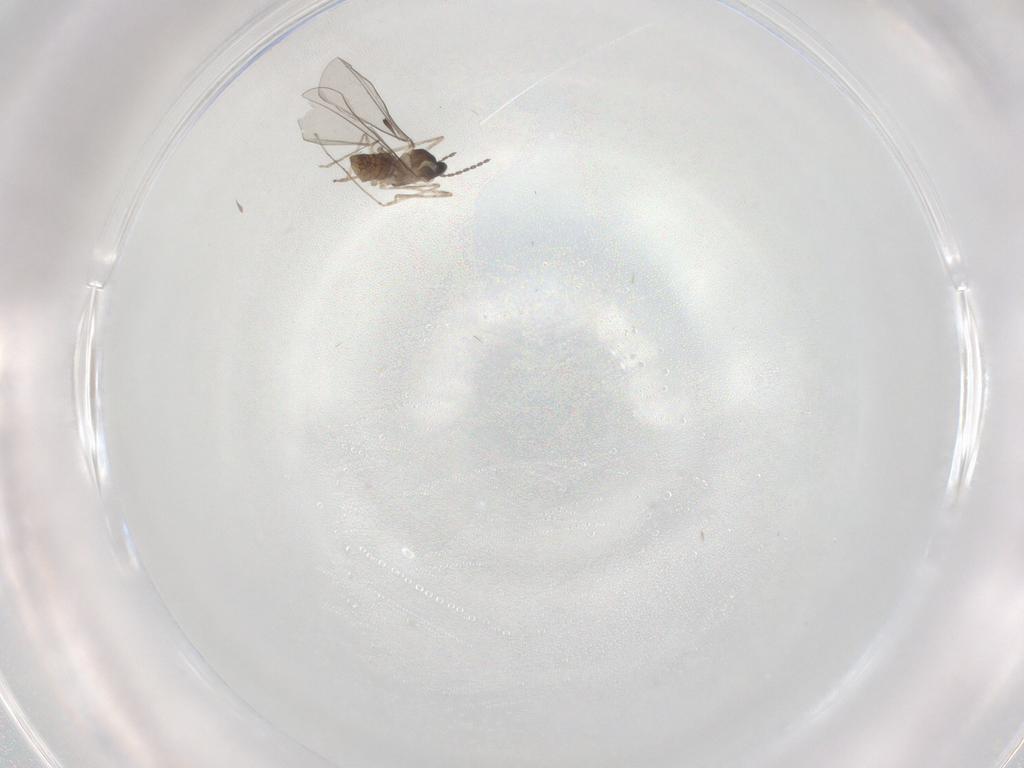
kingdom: Animalia
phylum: Arthropoda
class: Insecta
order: Diptera
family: Cecidomyiidae
